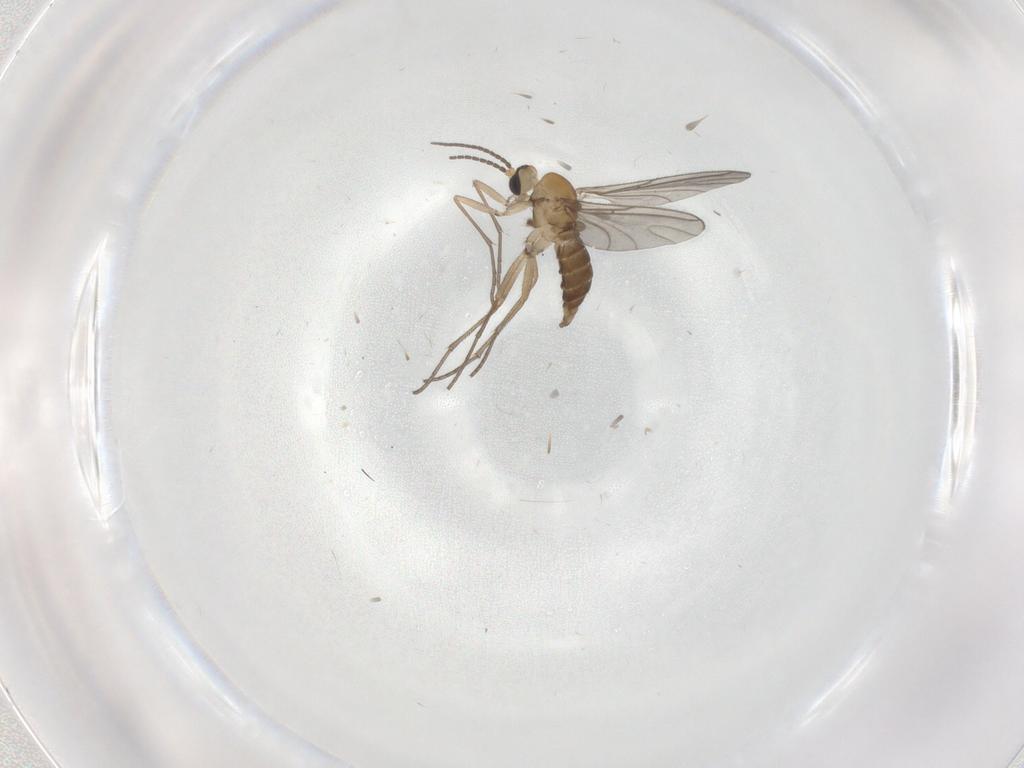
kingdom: Animalia
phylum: Arthropoda
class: Insecta
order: Diptera
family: Sciaridae
